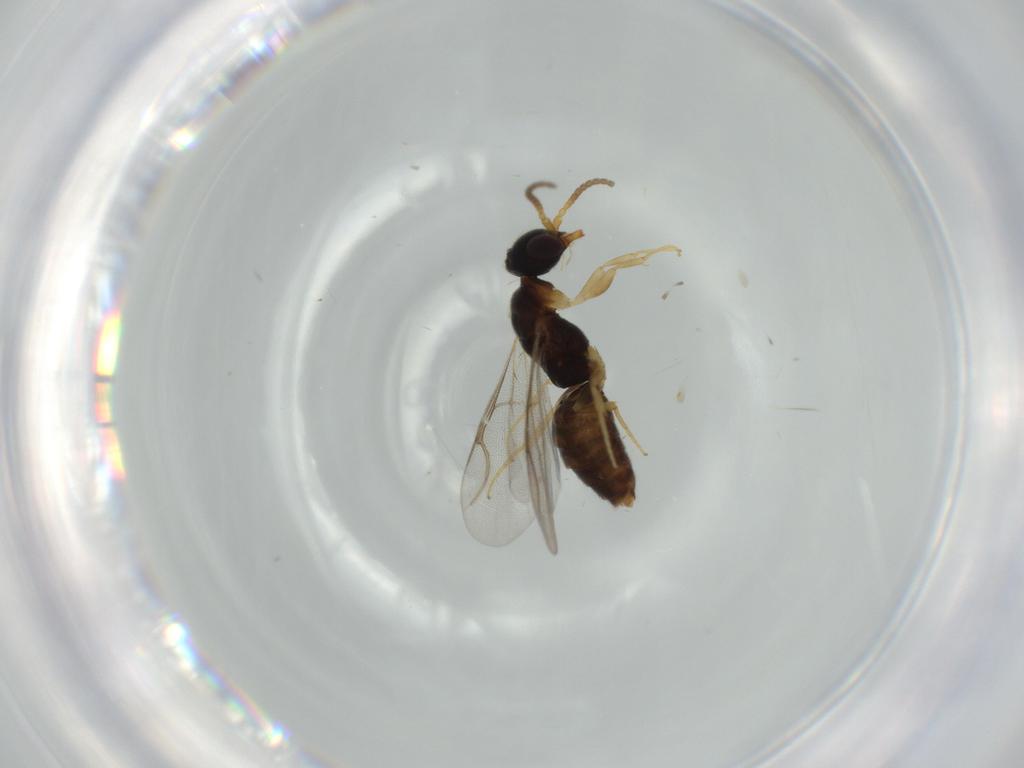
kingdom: Animalia
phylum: Arthropoda
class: Insecta
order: Hymenoptera
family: Bethylidae
